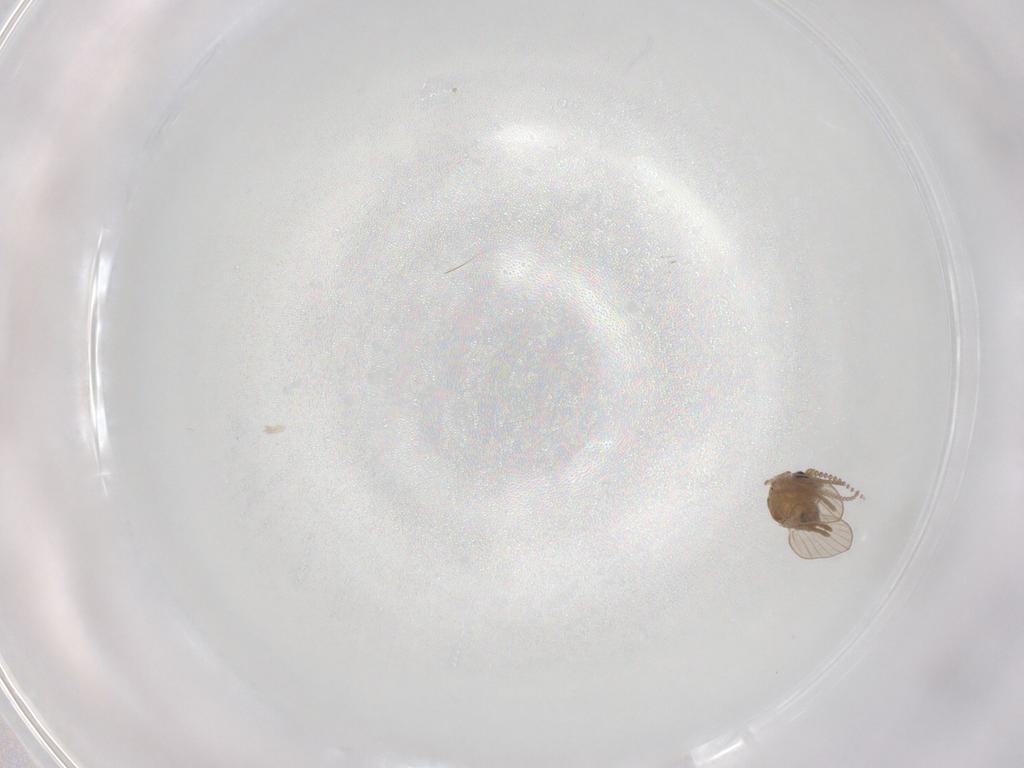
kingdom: Animalia
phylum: Arthropoda
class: Insecta
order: Diptera
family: Psychodidae
